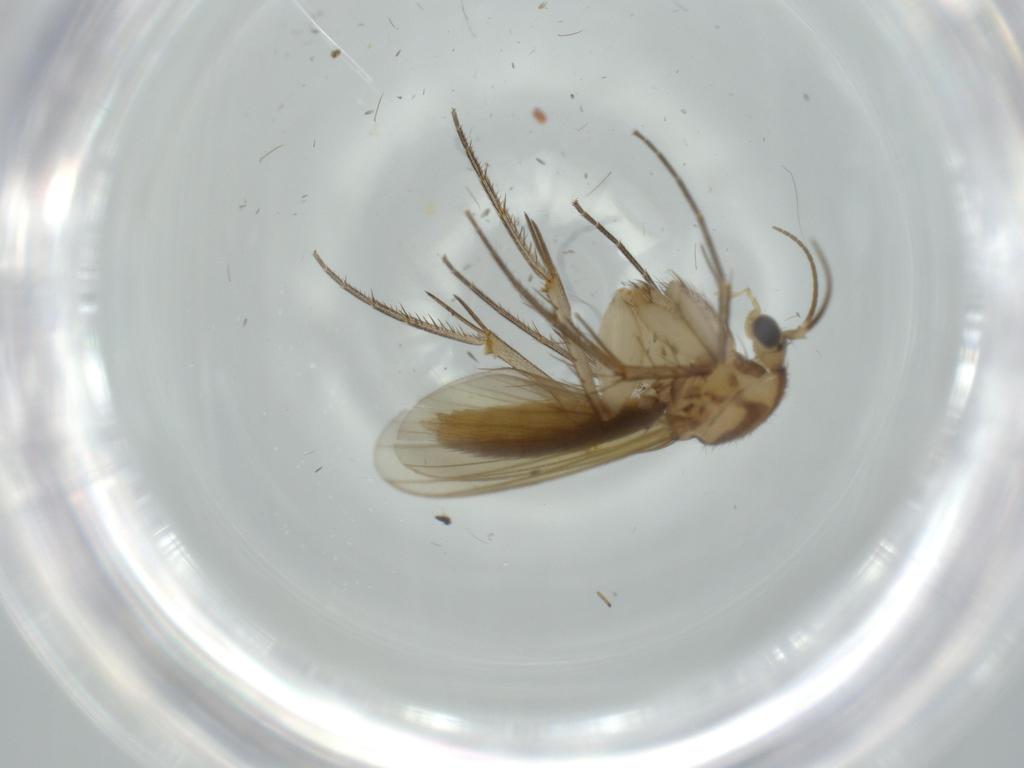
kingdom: Animalia
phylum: Arthropoda
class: Insecta
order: Diptera
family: Mycetophilidae
